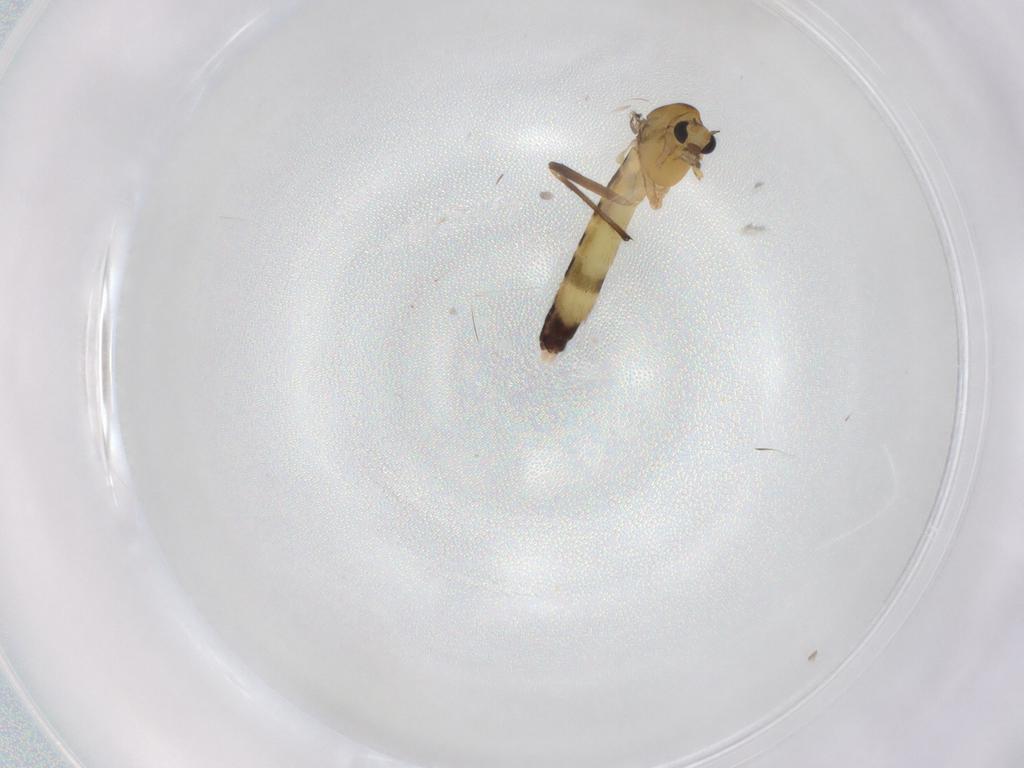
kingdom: Animalia
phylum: Arthropoda
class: Insecta
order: Diptera
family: Chironomidae
